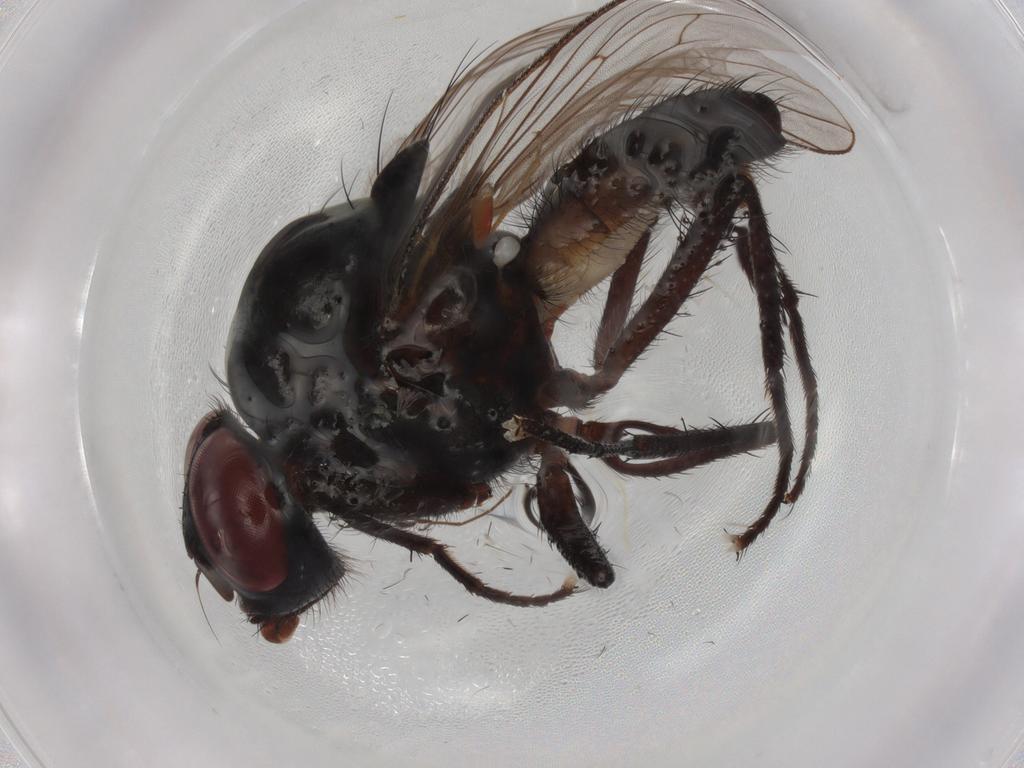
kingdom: Animalia
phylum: Arthropoda
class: Insecta
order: Diptera
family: Anthomyiidae
